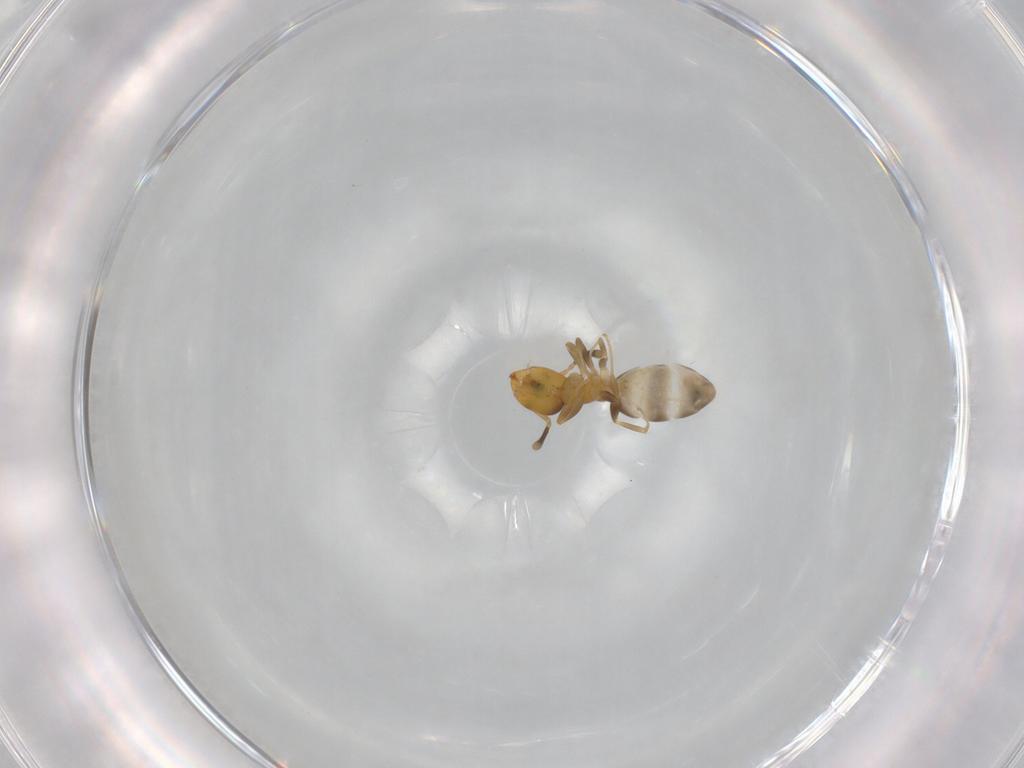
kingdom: Animalia
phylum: Arthropoda
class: Insecta
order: Hymenoptera
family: Formicidae
